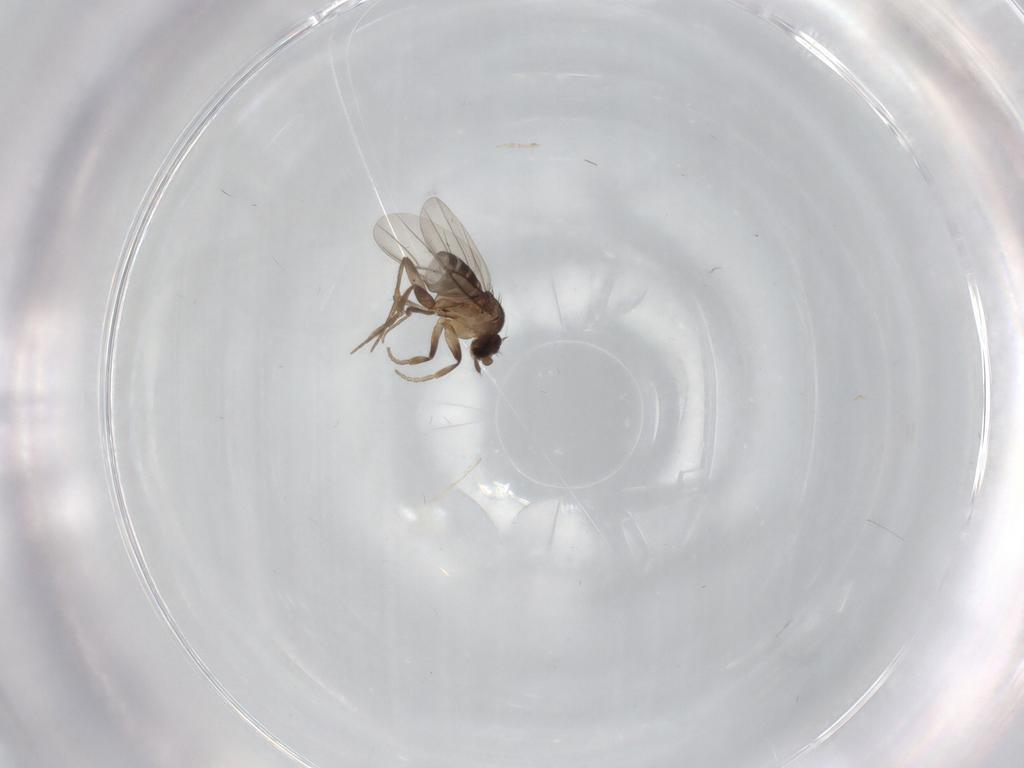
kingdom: Animalia
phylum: Arthropoda
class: Insecta
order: Diptera
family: Phoridae
